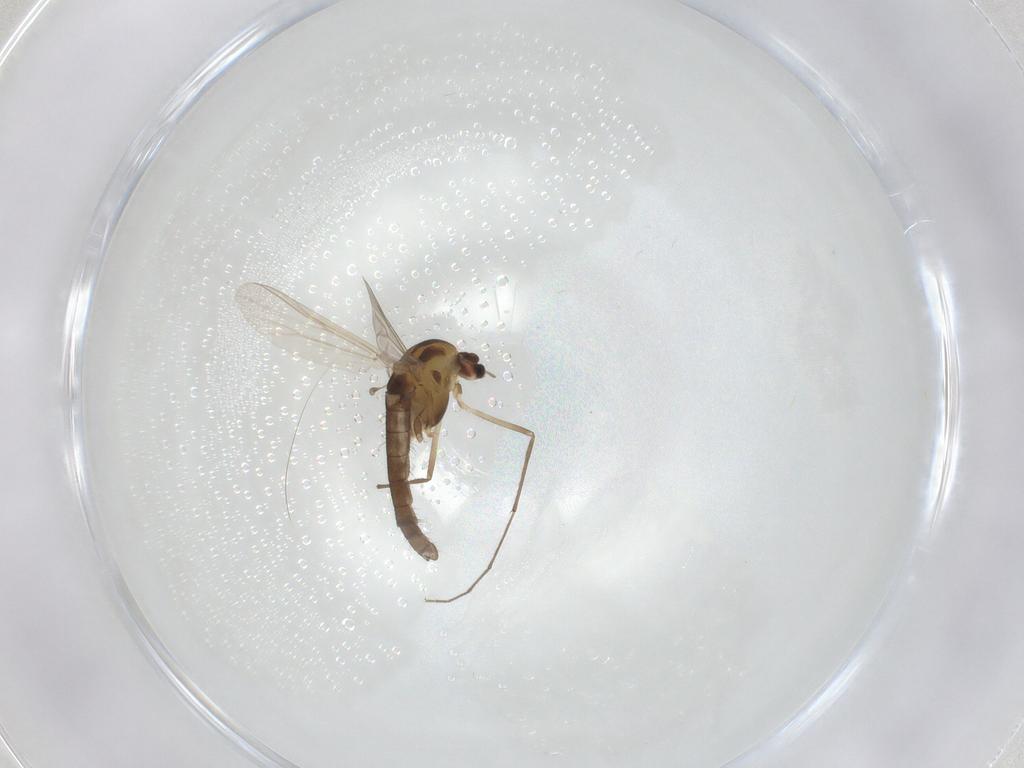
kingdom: Animalia
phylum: Arthropoda
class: Insecta
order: Diptera
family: Chironomidae
